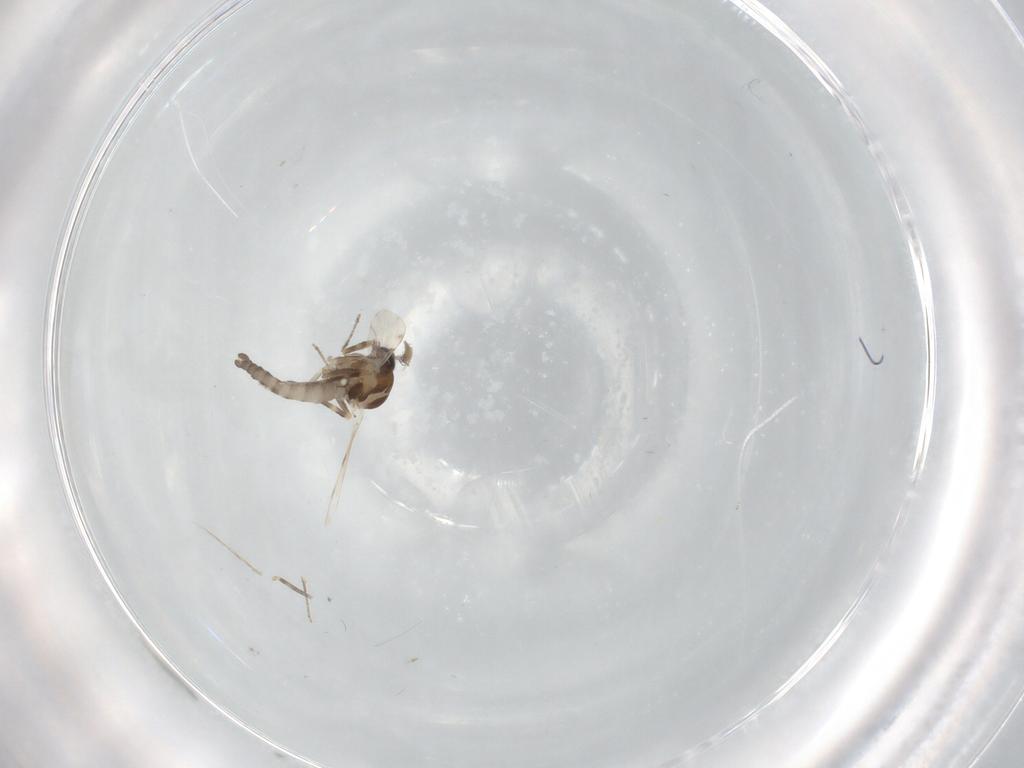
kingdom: Animalia
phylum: Arthropoda
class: Insecta
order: Diptera
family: Ceratopogonidae
